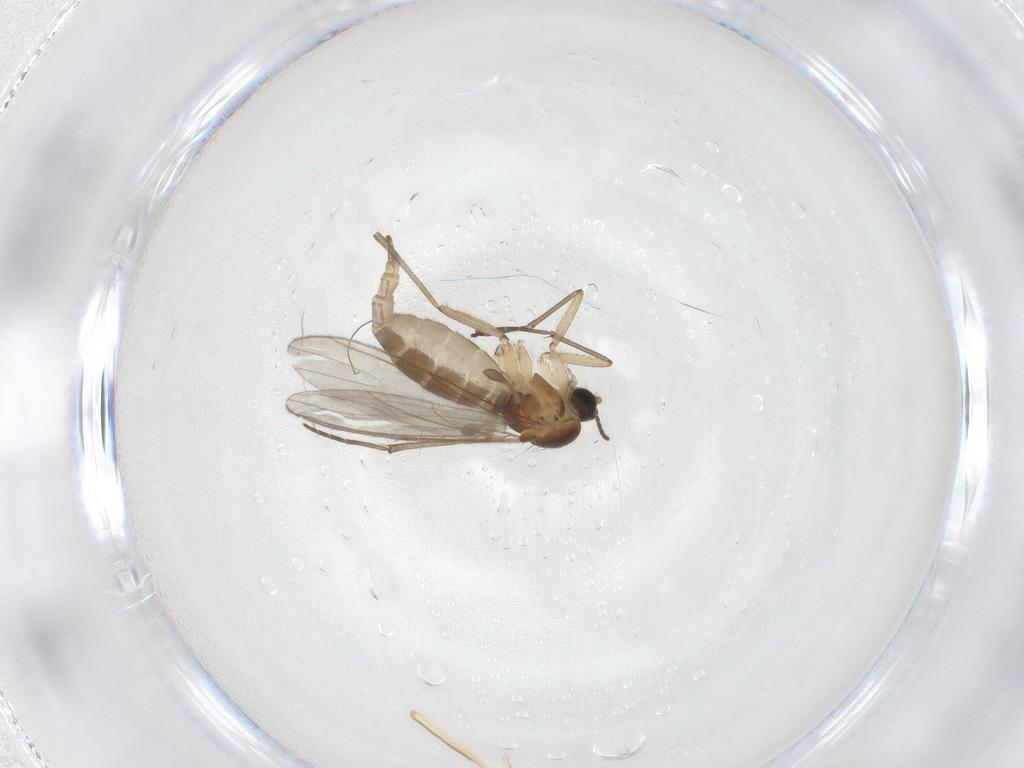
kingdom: Animalia
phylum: Arthropoda
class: Insecta
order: Diptera
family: Sciaridae
